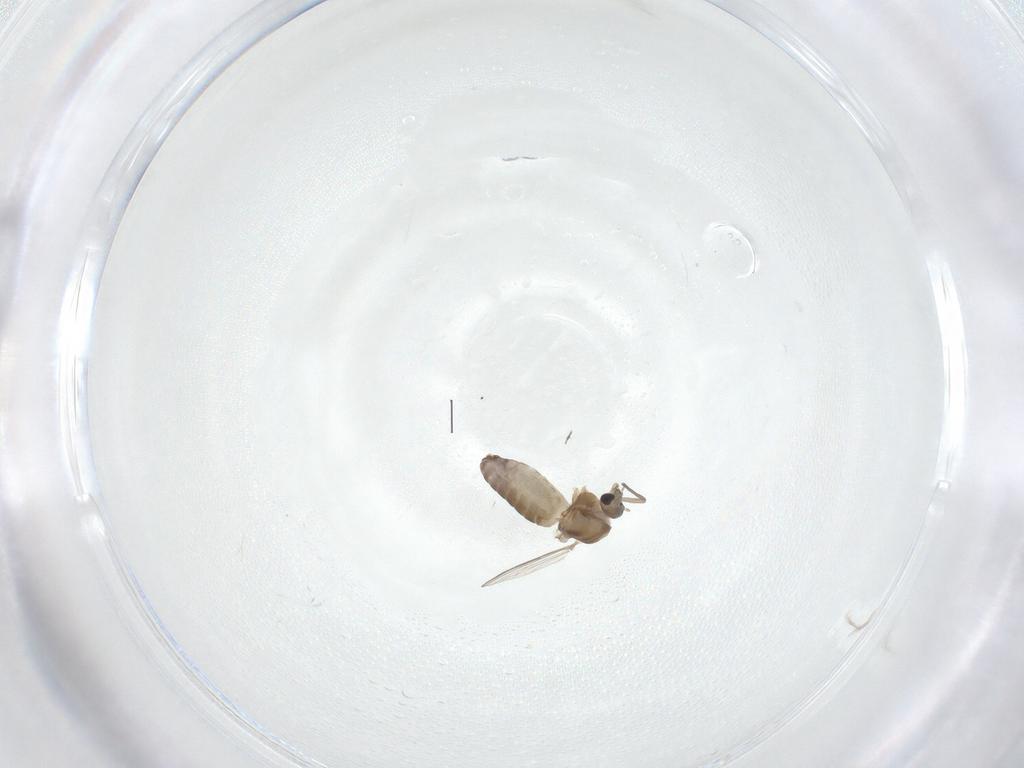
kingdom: Animalia
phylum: Arthropoda
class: Insecta
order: Diptera
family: Chironomidae
